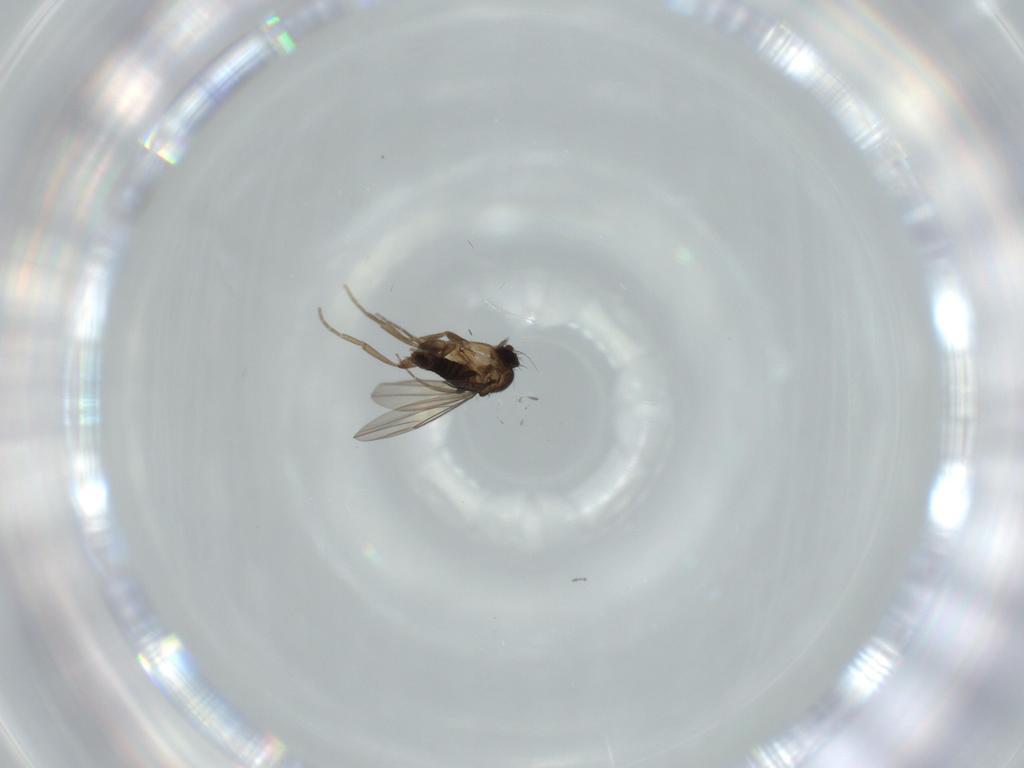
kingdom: Animalia
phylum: Arthropoda
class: Insecta
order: Diptera
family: Phoridae
